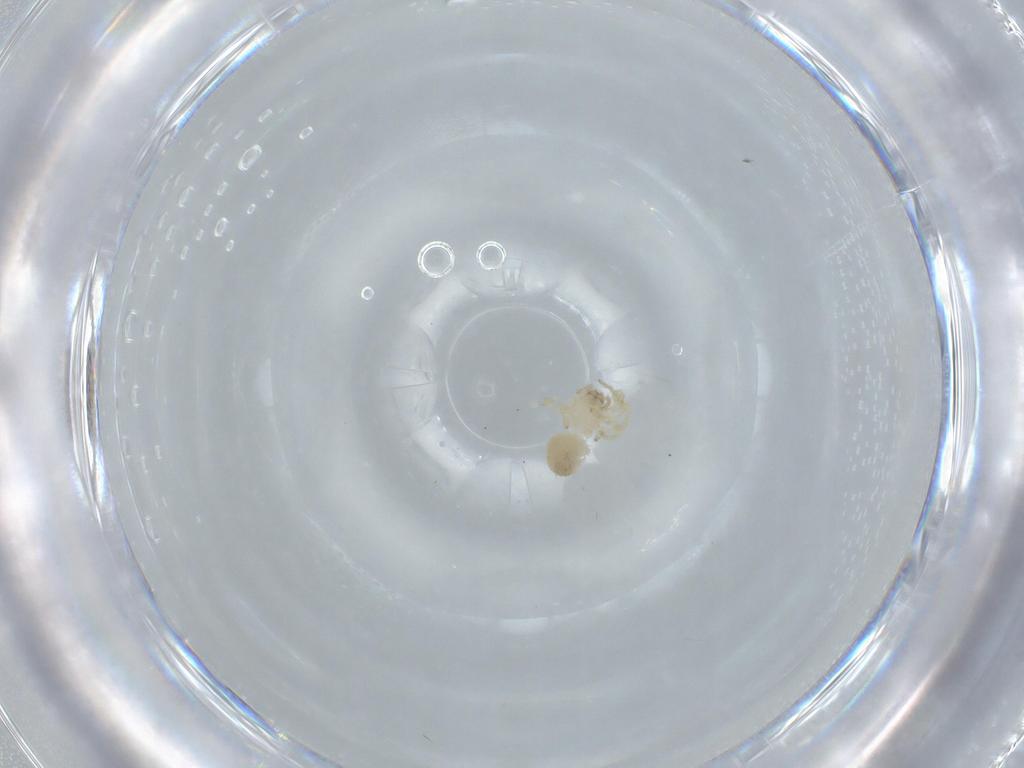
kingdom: Animalia
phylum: Arthropoda
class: Arachnida
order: Araneae
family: Oonopidae
